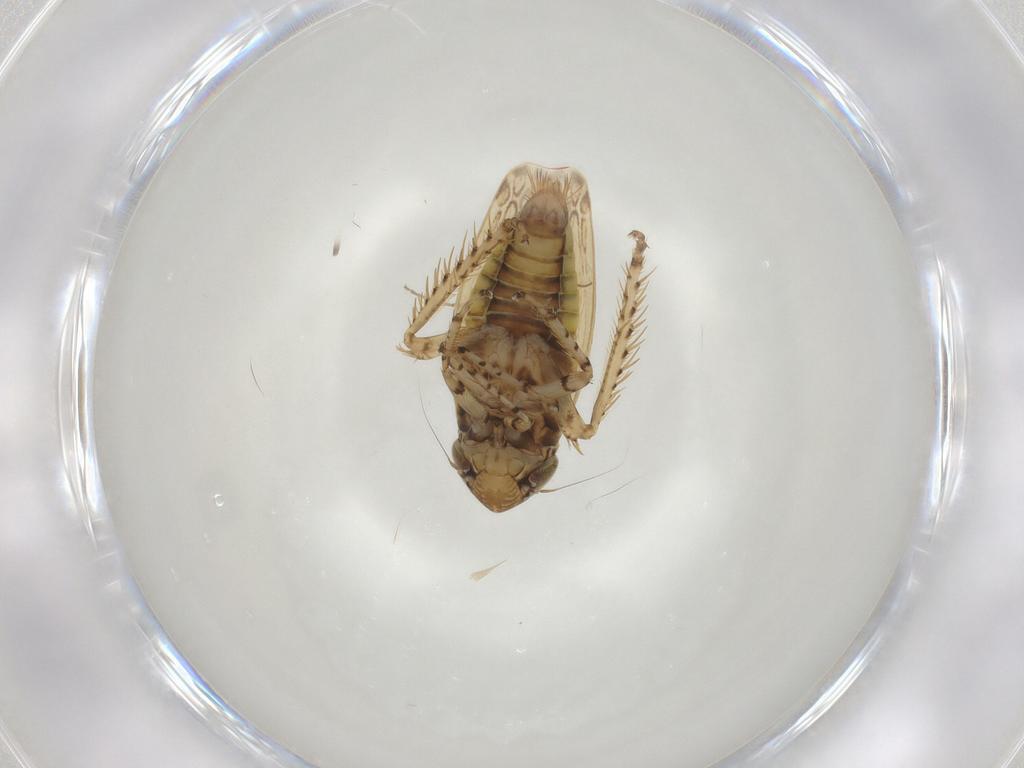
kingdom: Animalia
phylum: Arthropoda
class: Insecta
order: Hemiptera
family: Cicadellidae
